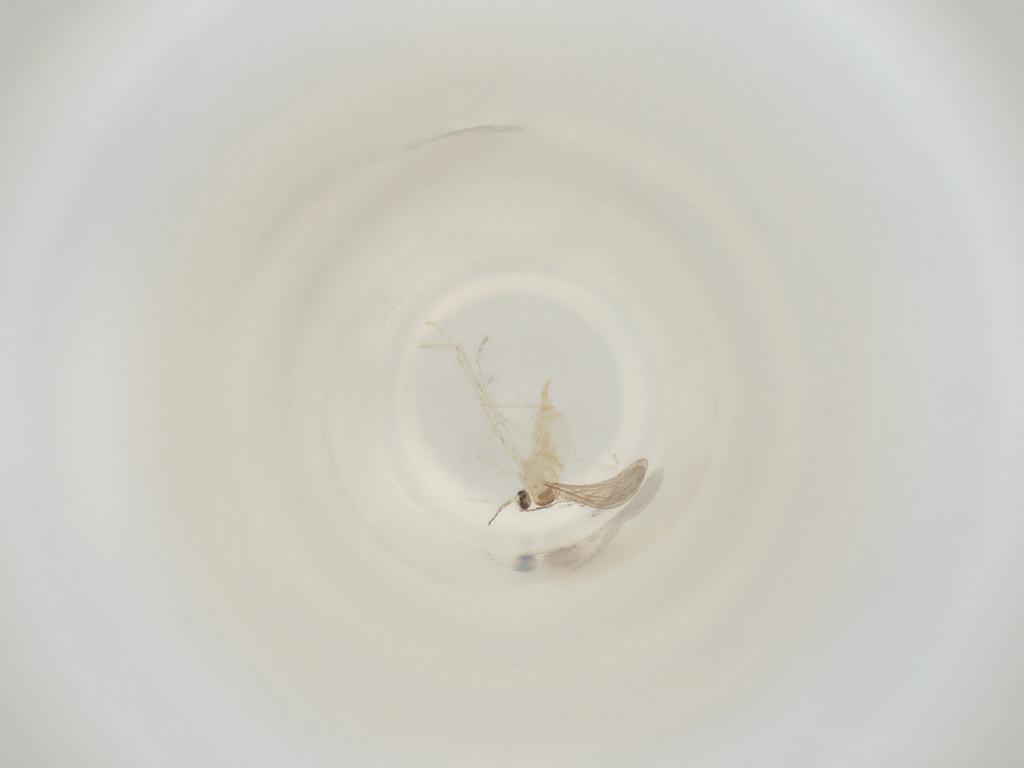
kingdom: Animalia
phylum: Arthropoda
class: Insecta
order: Diptera
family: Cecidomyiidae
